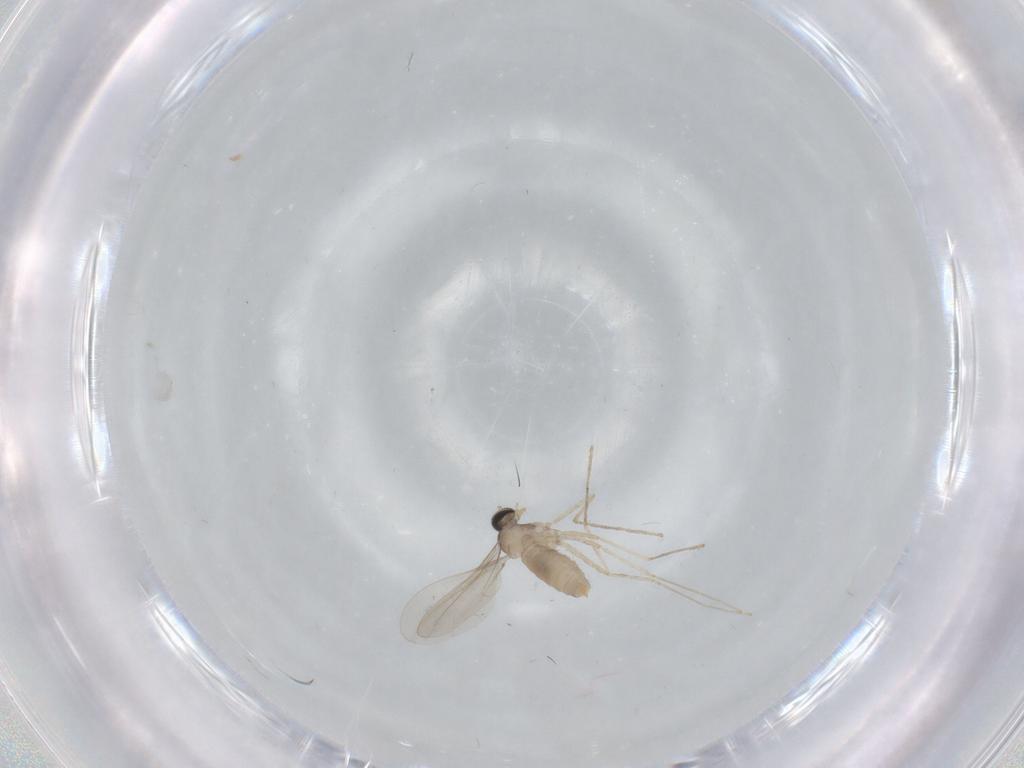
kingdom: Animalia
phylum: Arthropoda
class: Insecta
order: Diptera
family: Cecidomyiidae
